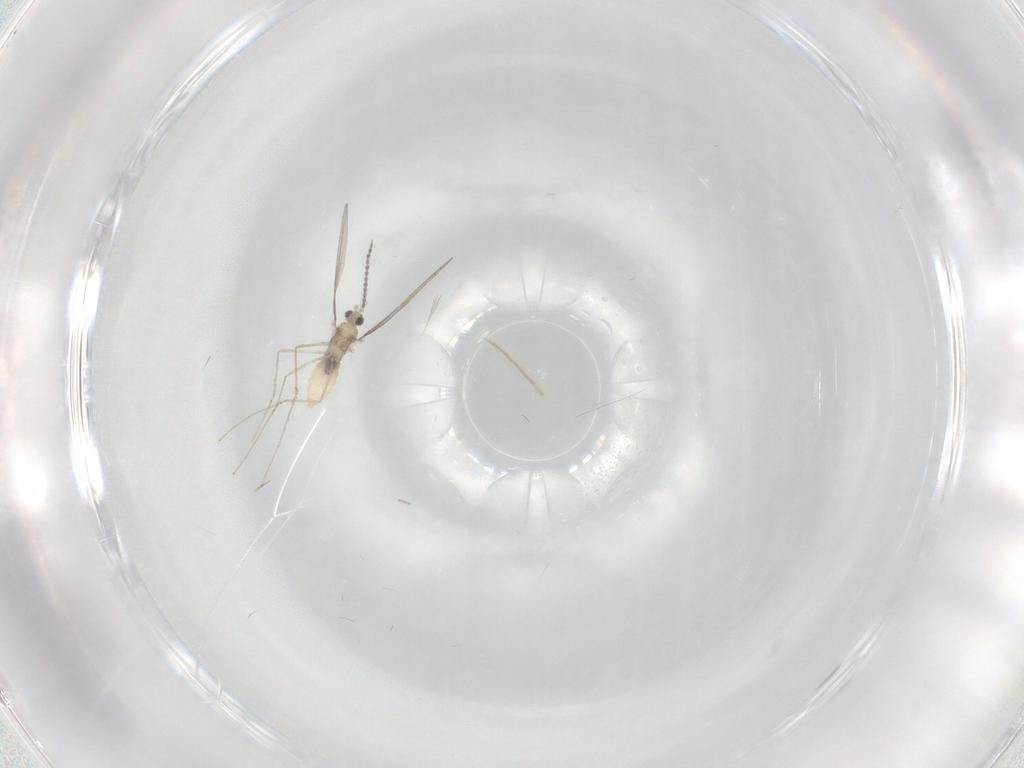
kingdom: Animalia
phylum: Arthropoda
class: Insecta
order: Diptera
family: Cecidomyiidae
